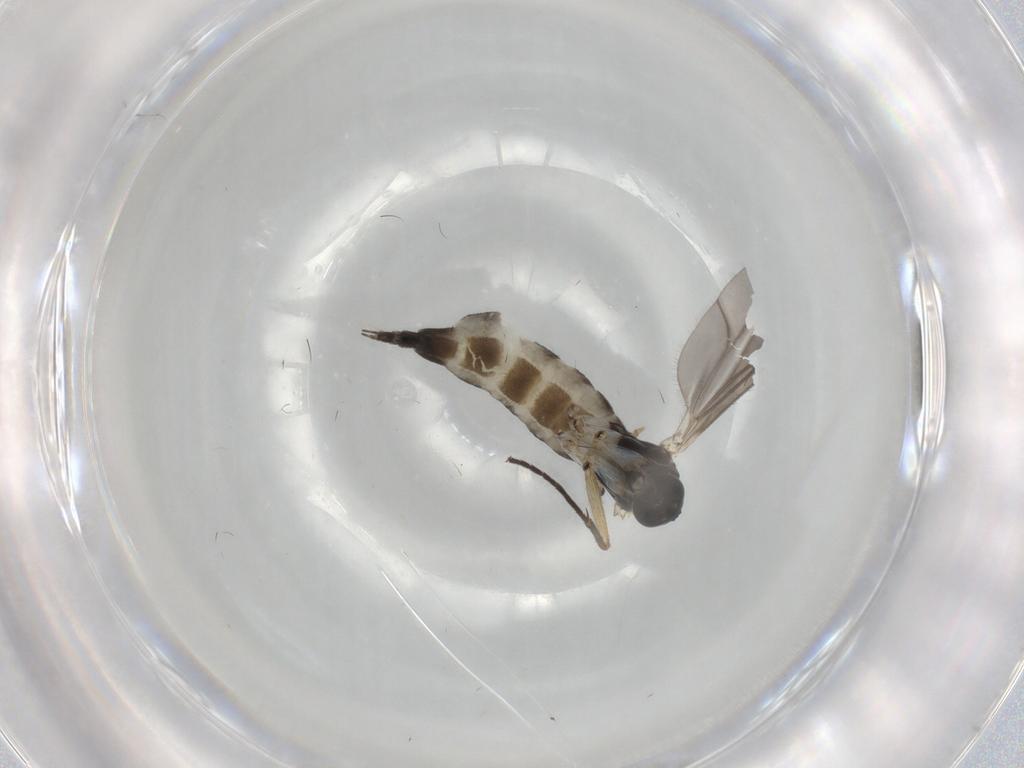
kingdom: Animalia
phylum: Arthropoda
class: Insecta
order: Diptera
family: Sciaridae
